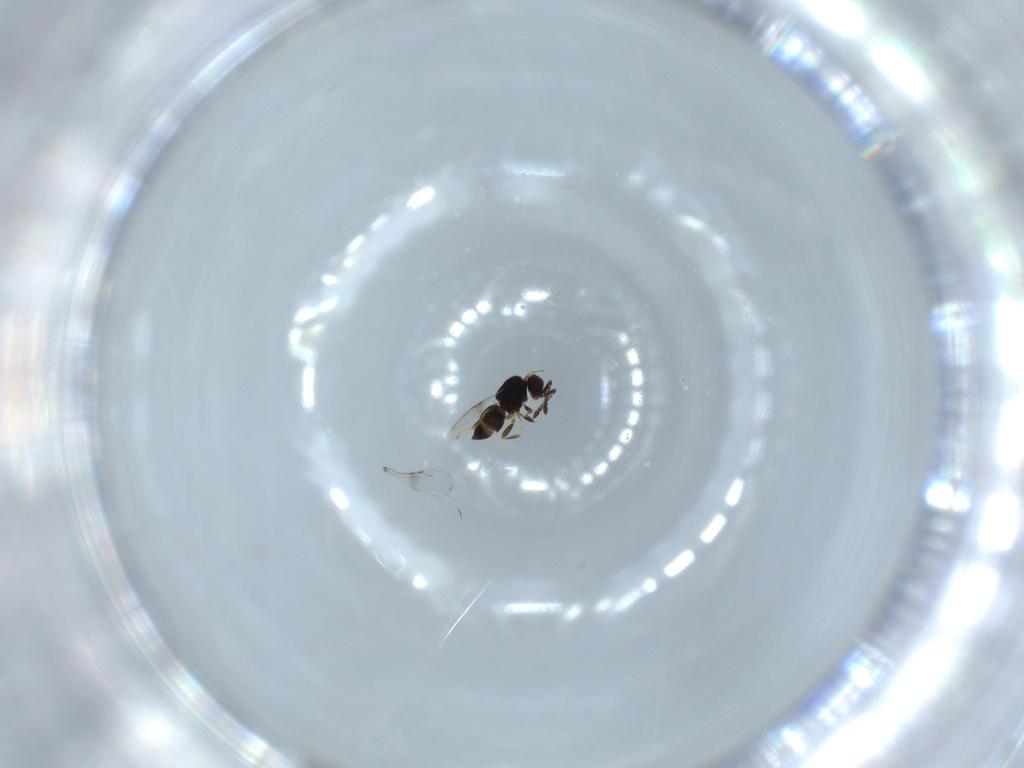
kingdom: Animalia
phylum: Arthropoda
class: Insecta
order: Hymenoptera
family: Ceraphronidae
